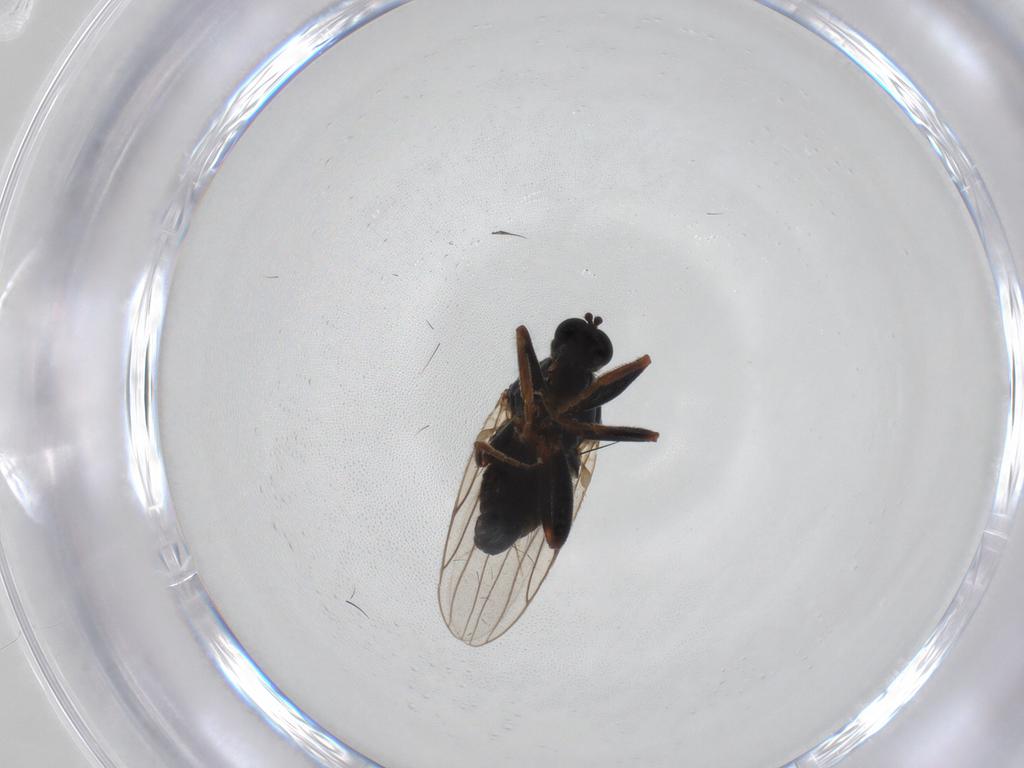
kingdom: Animalia
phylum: Arthropoda
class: Insecta
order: Diptera
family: Hybotidae
